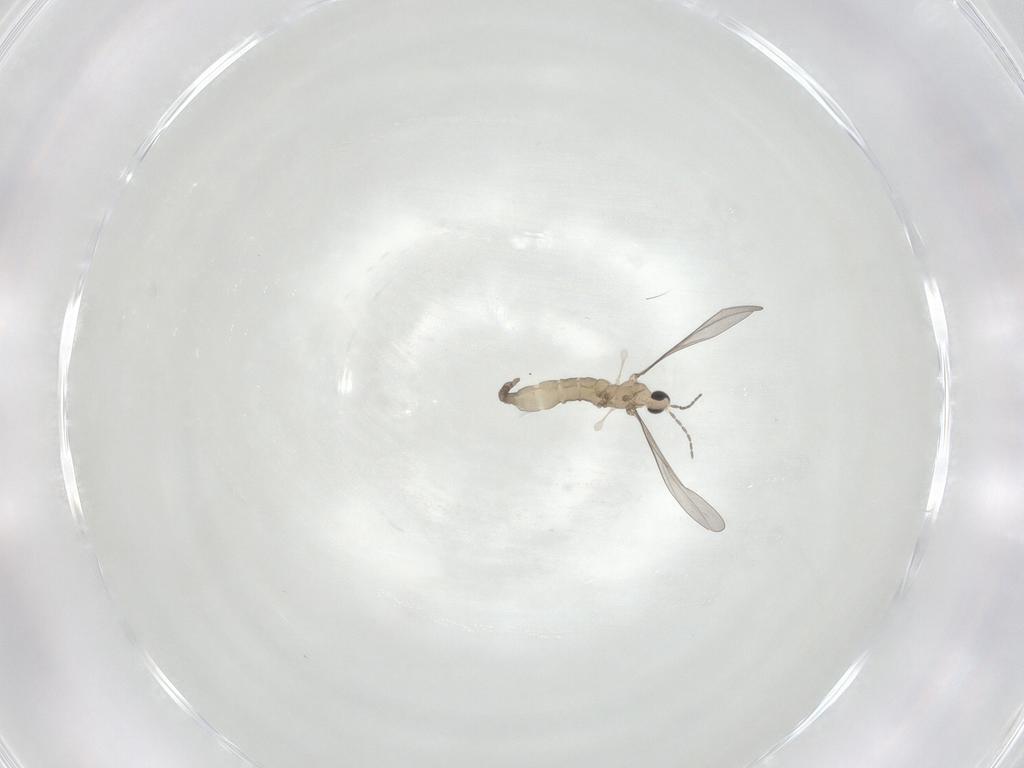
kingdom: Animalia
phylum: Arthropoda
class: Insecta
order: Diptera
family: Cecidomyiidae
